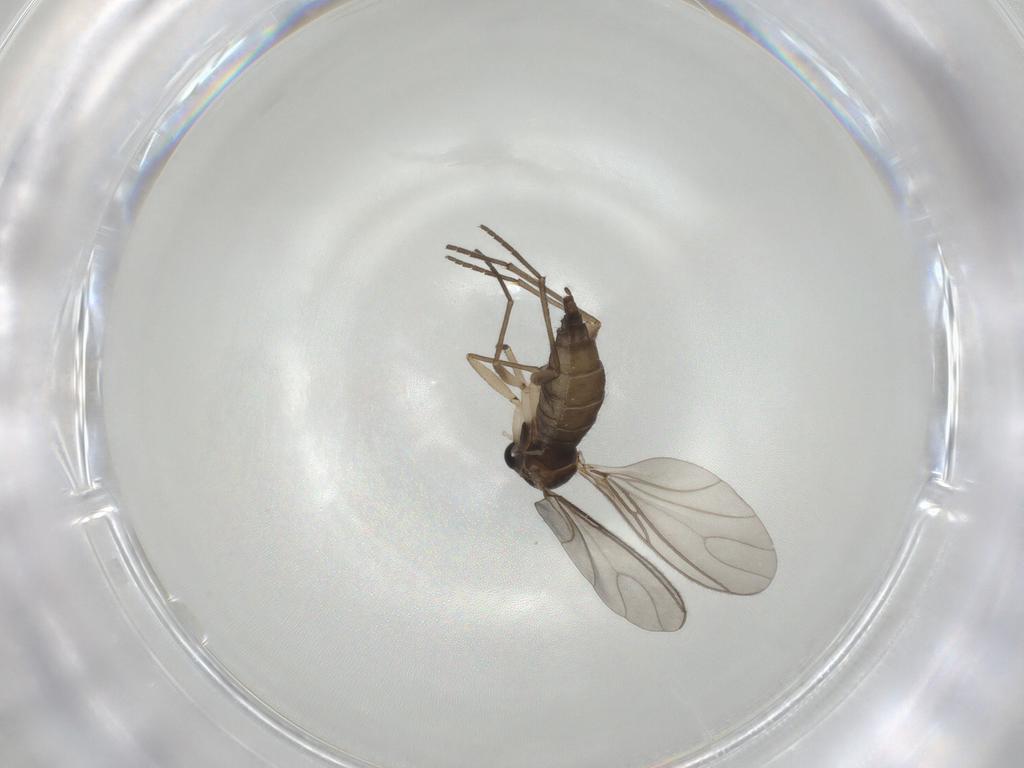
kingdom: Animalia
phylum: Arthropoda
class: Insecta
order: Diptera
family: Sciaridae
